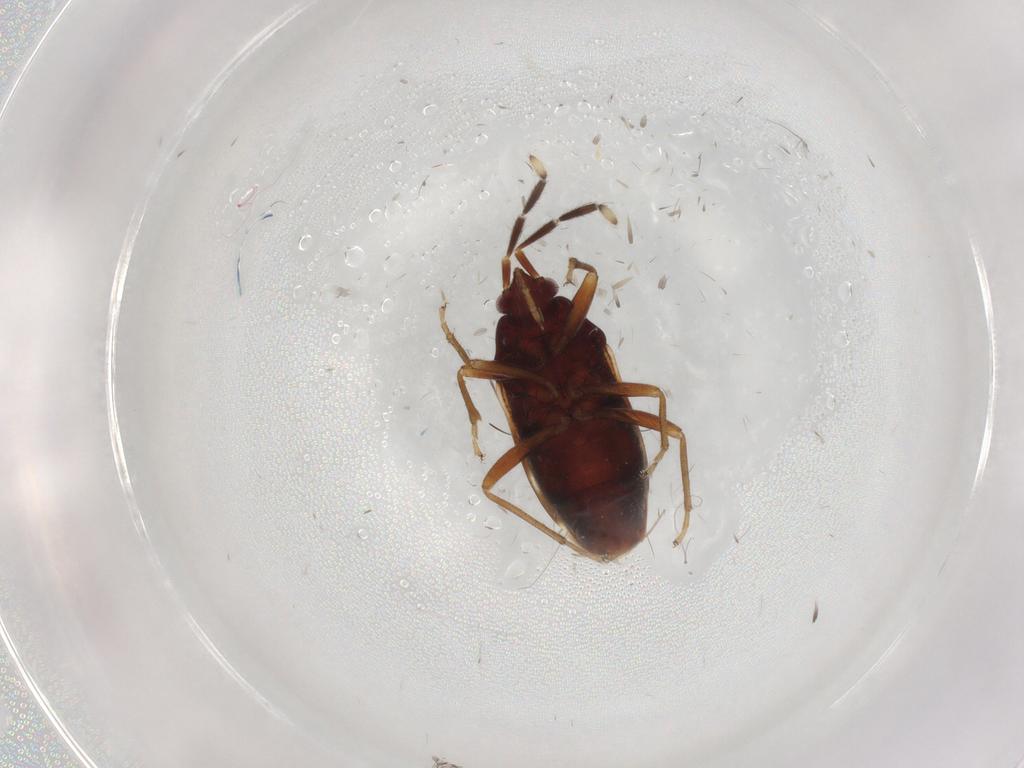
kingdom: Animalia
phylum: Arthropoda
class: Insecta
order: Hemiptera
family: Rhyparochromidae
